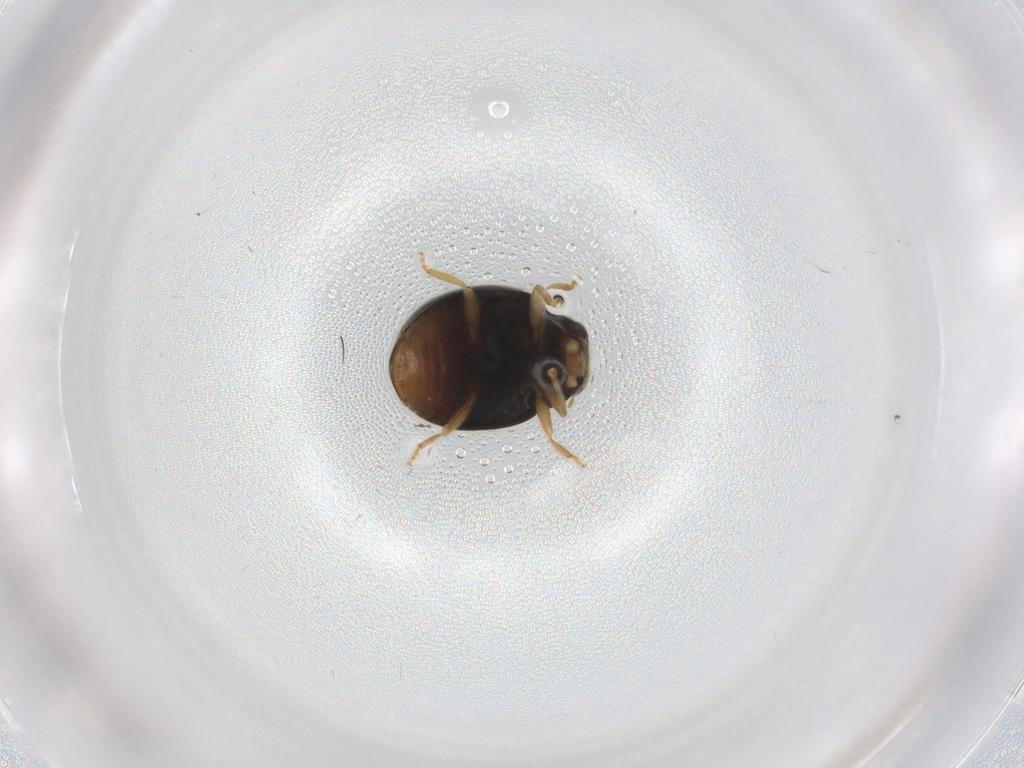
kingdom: Animalia
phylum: Arthropoda
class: Insecta
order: Coleoptera
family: Coccinellidae
